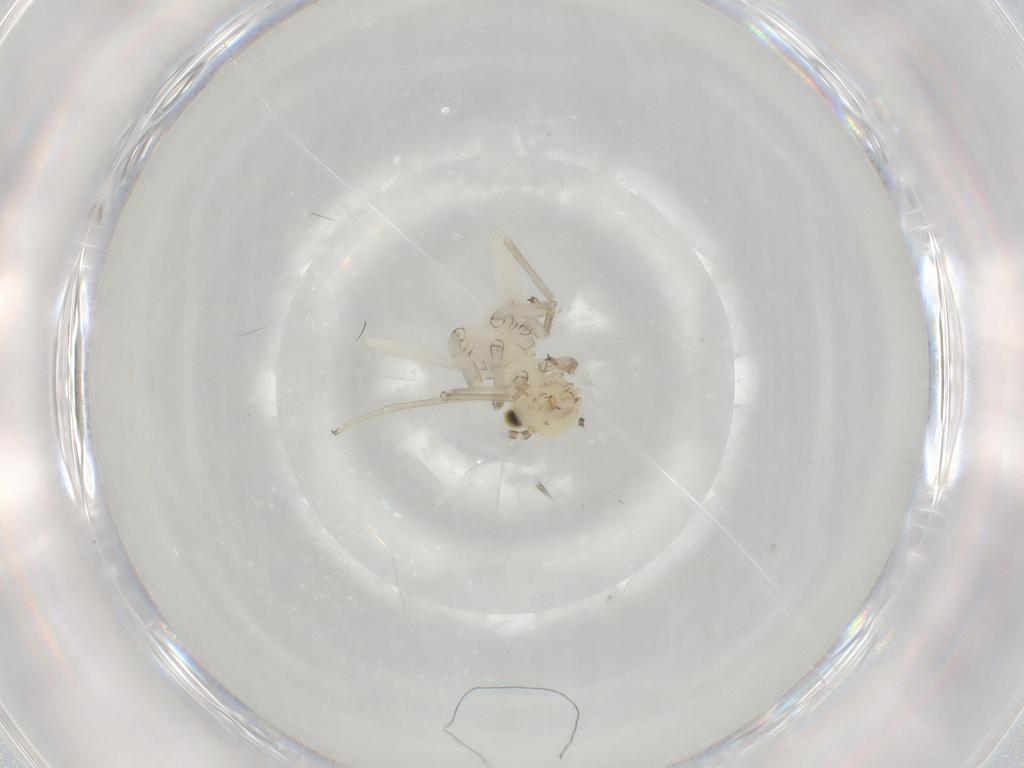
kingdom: Animalia
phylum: Arthropoda
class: Insecta
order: Psocodea
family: Caeciliusidae
